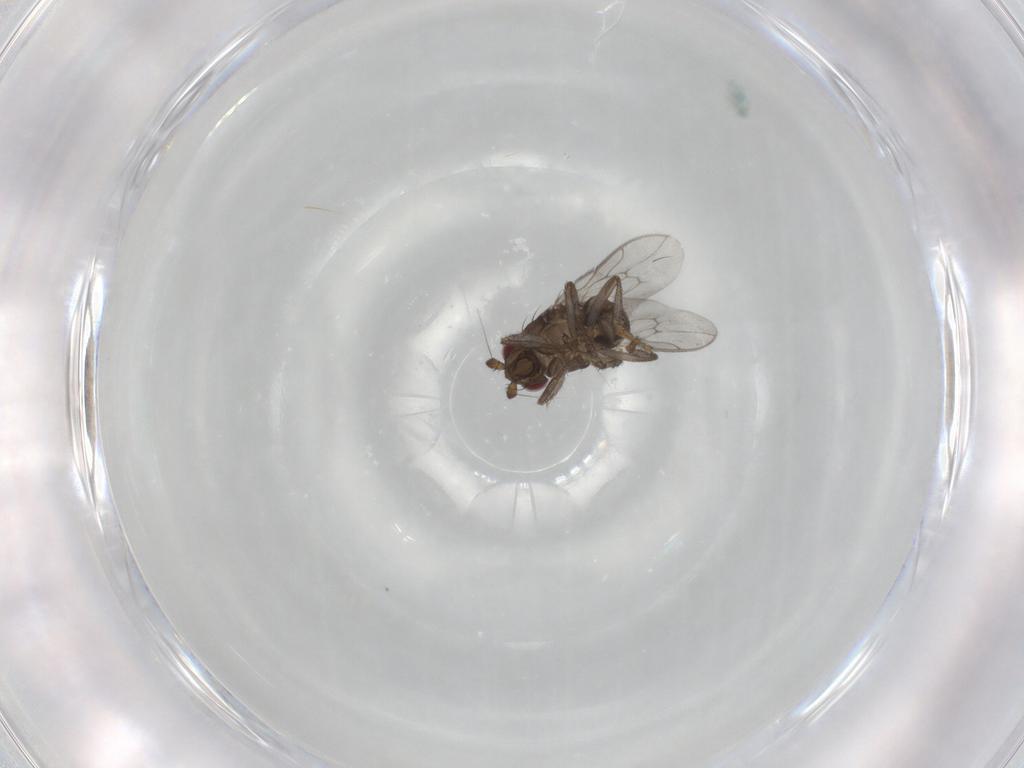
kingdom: Animalia
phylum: Arthropoda
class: Insecta
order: Diptera
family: Sphaeroceridae
